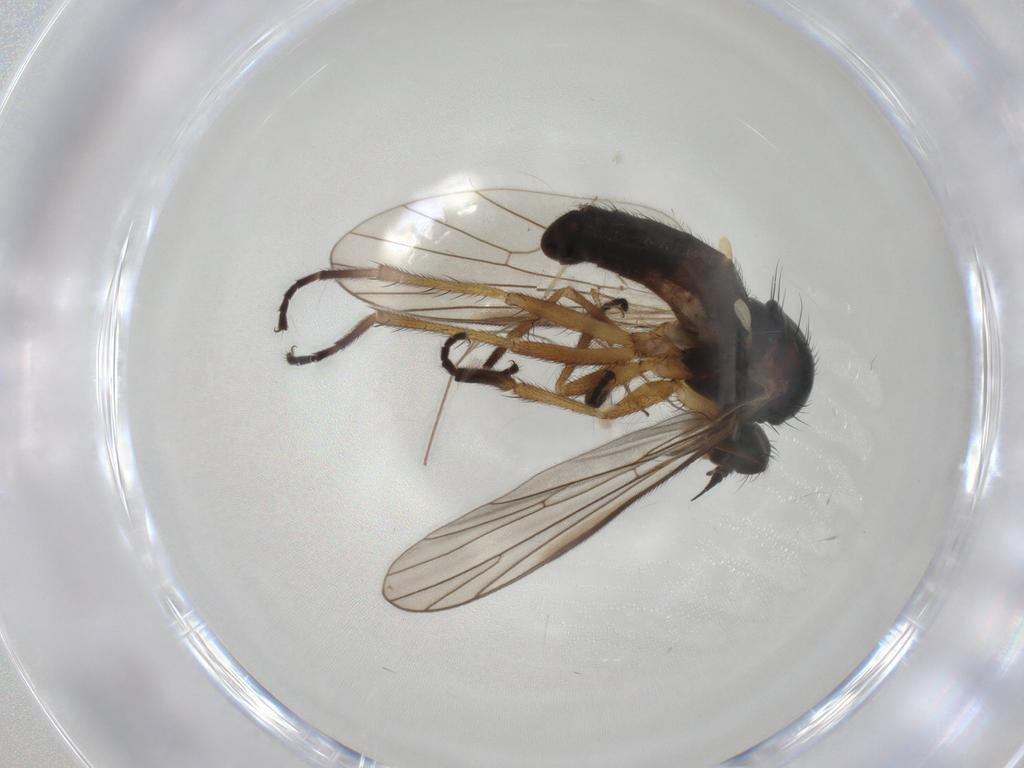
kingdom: Animalia
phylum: Arthropoda
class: Insecta
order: Diptera
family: Empididae
